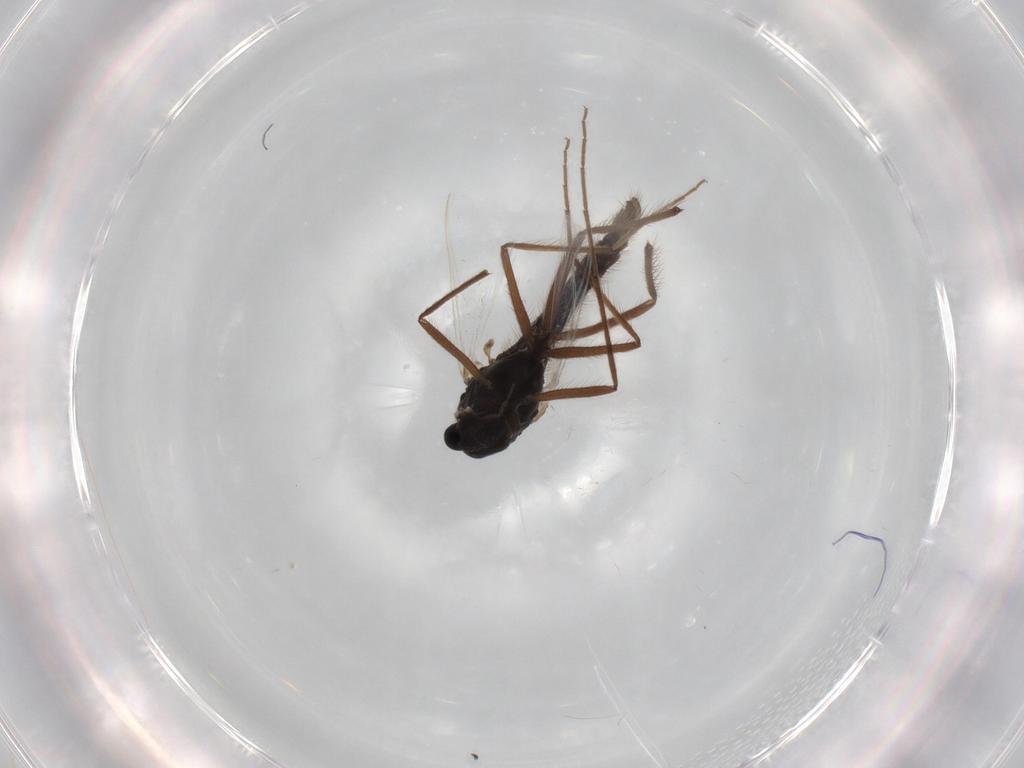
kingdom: Animalia
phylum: Arthropoda
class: Insecta
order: Diptera
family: Drosophilidae
